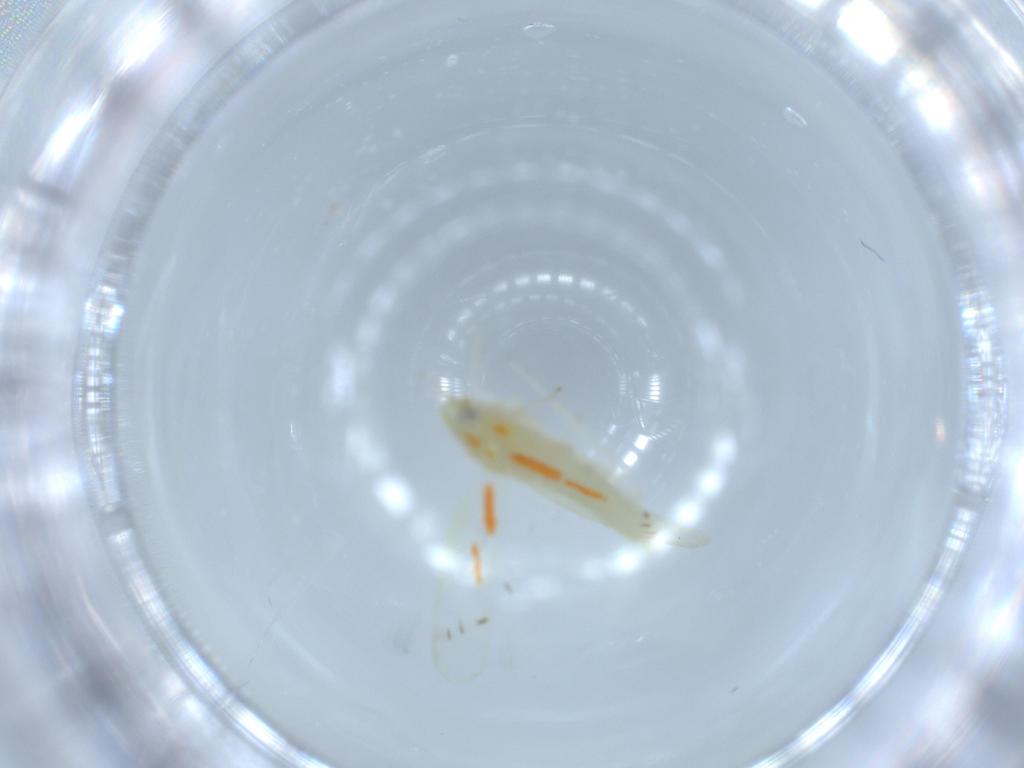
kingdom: Animalia
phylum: Arthropoda
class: Insecta
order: Hemiptera
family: Cicadellidae
